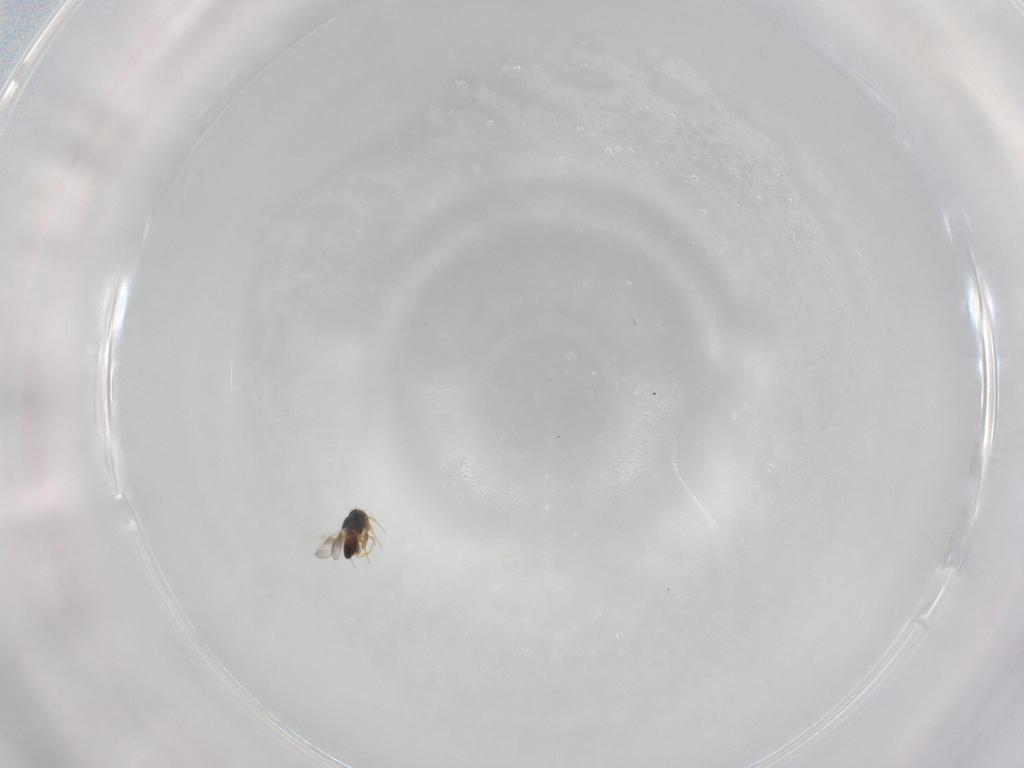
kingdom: Animalia
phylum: Arthropoda
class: Insecta
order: Hymenoptera
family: Platygastridae
